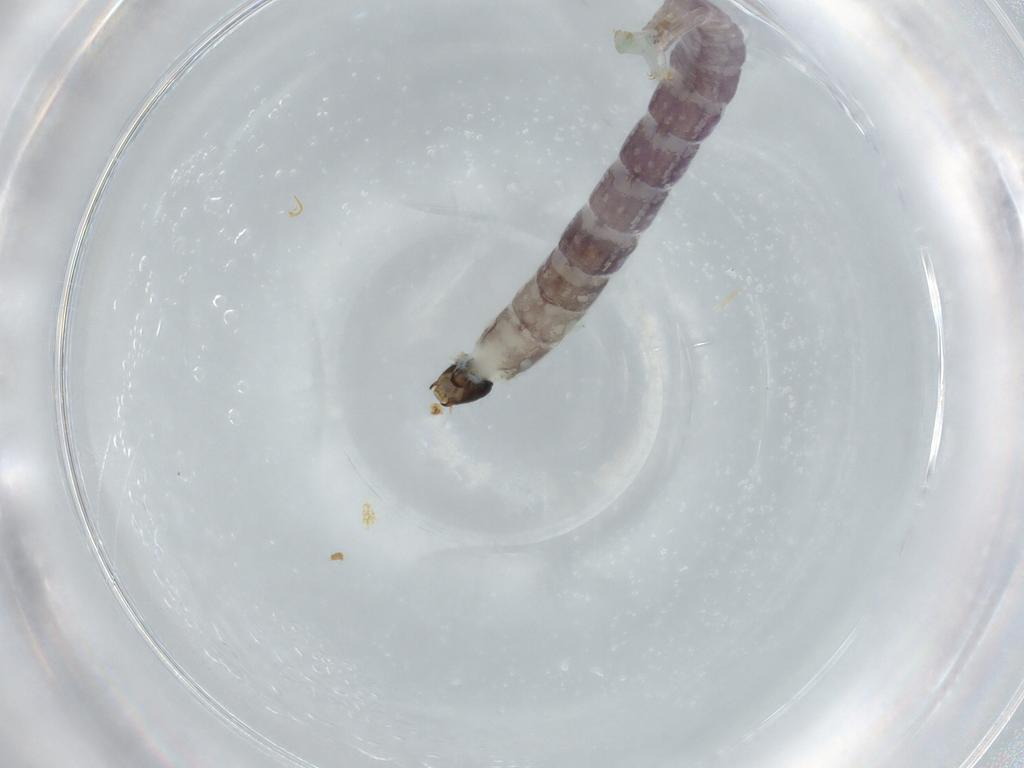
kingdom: Animalia
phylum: Arthropoda
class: Insecta
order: Diptera
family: Chironomidae
